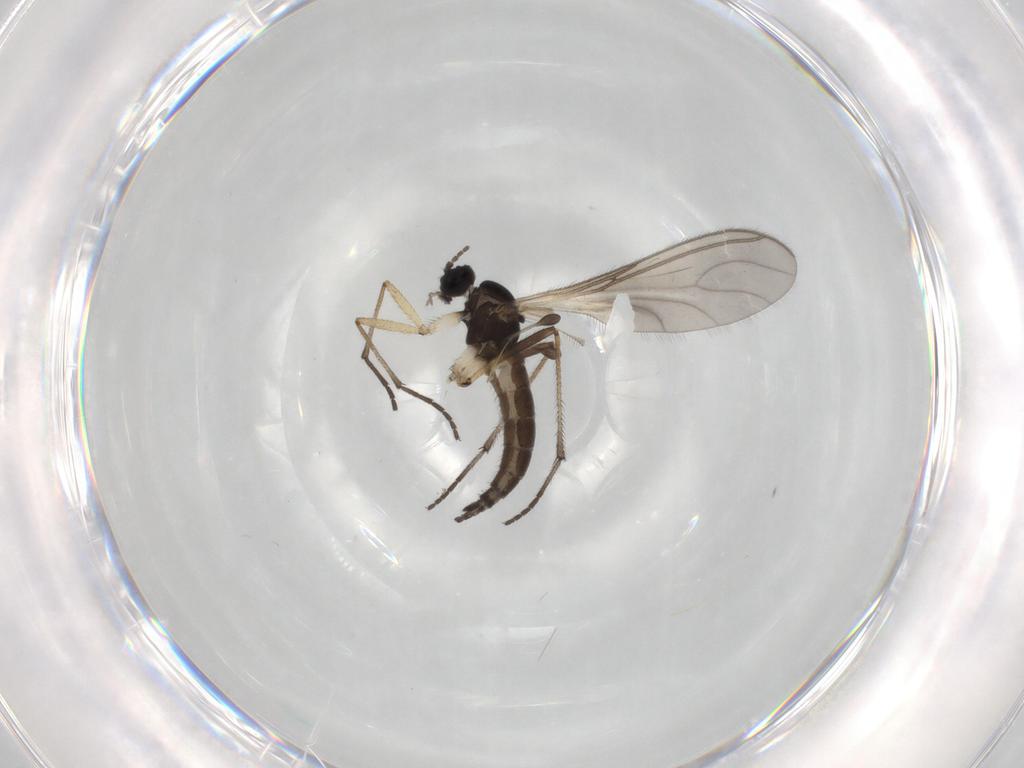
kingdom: Animalia
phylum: Arthropoda
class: Insecta
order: Diptera
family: Sciaridae
